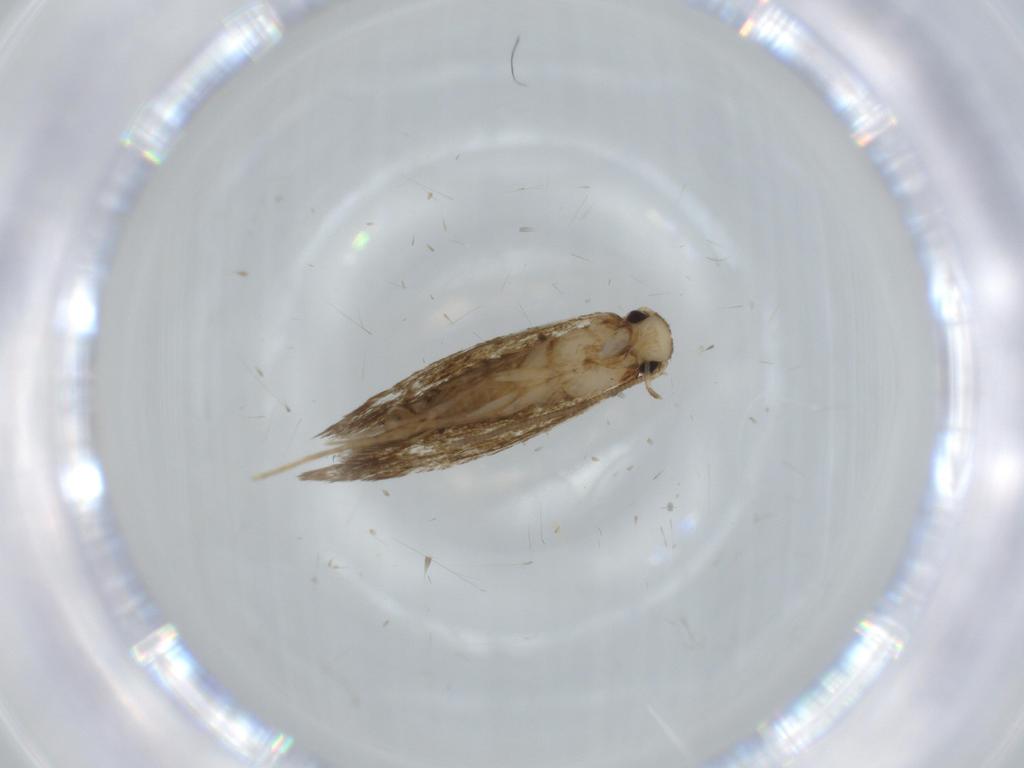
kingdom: Animalia
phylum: Arthropoda
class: Insecta
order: Lepidoptera
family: Tineidae
